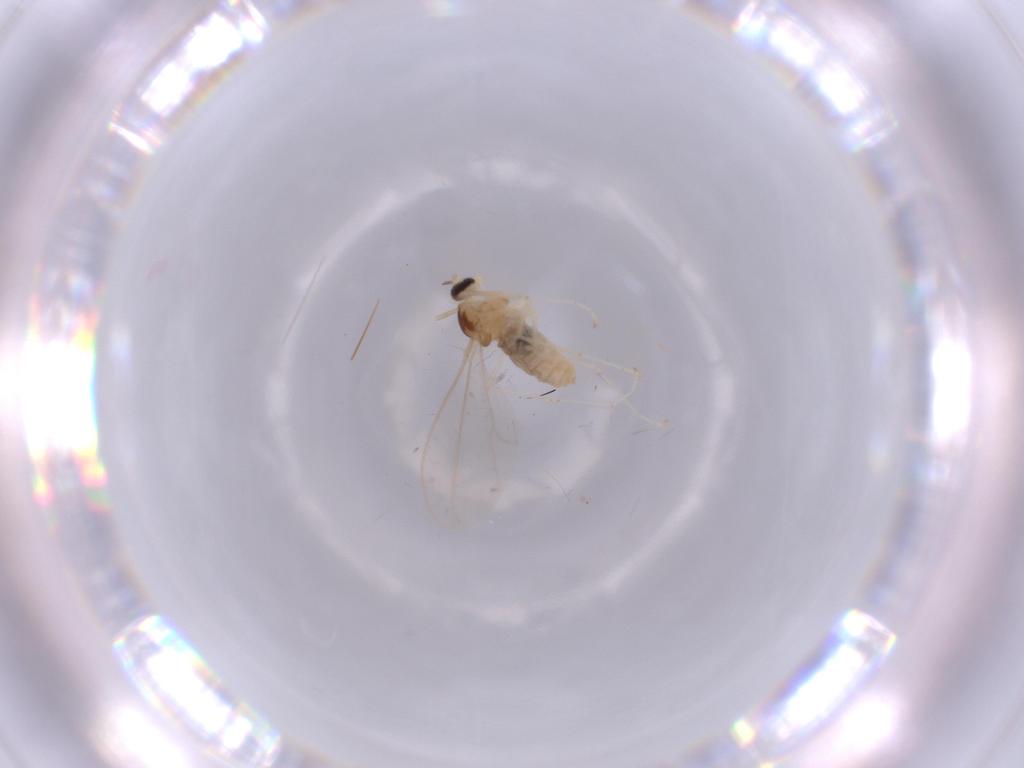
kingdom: Animalia
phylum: Arthropoda
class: Insecta
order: Diptera
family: Cecidomyiidae
